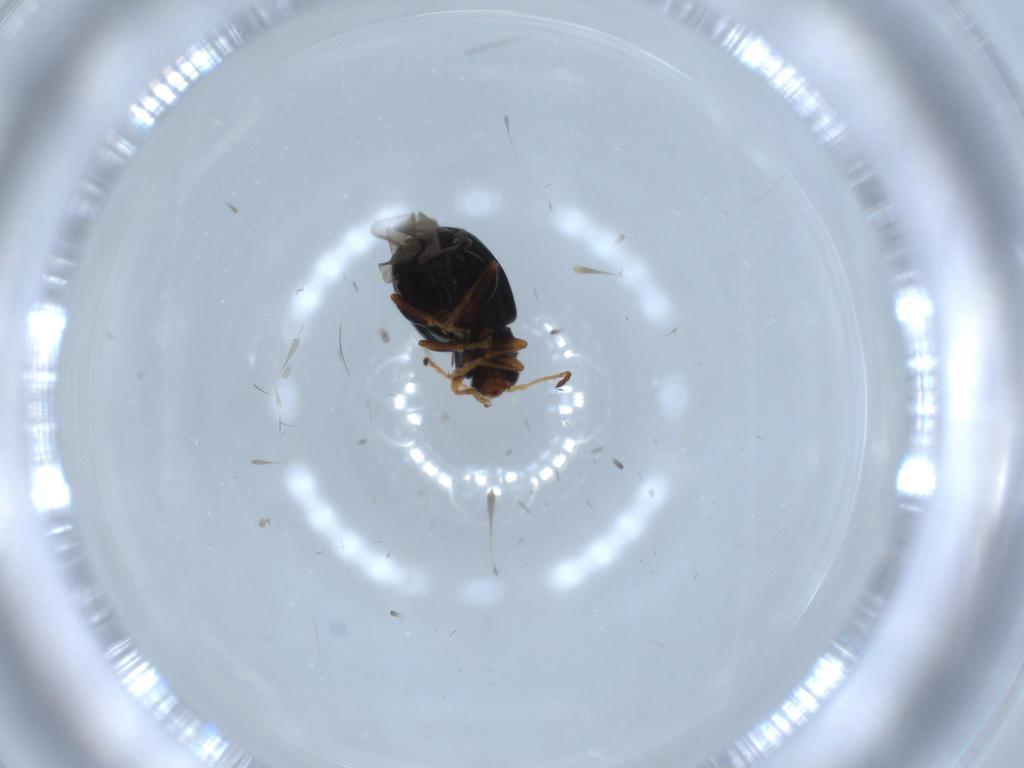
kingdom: Animalia
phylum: Arthropoda
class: Insecta
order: Coleoptera
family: Chrysomelidae
